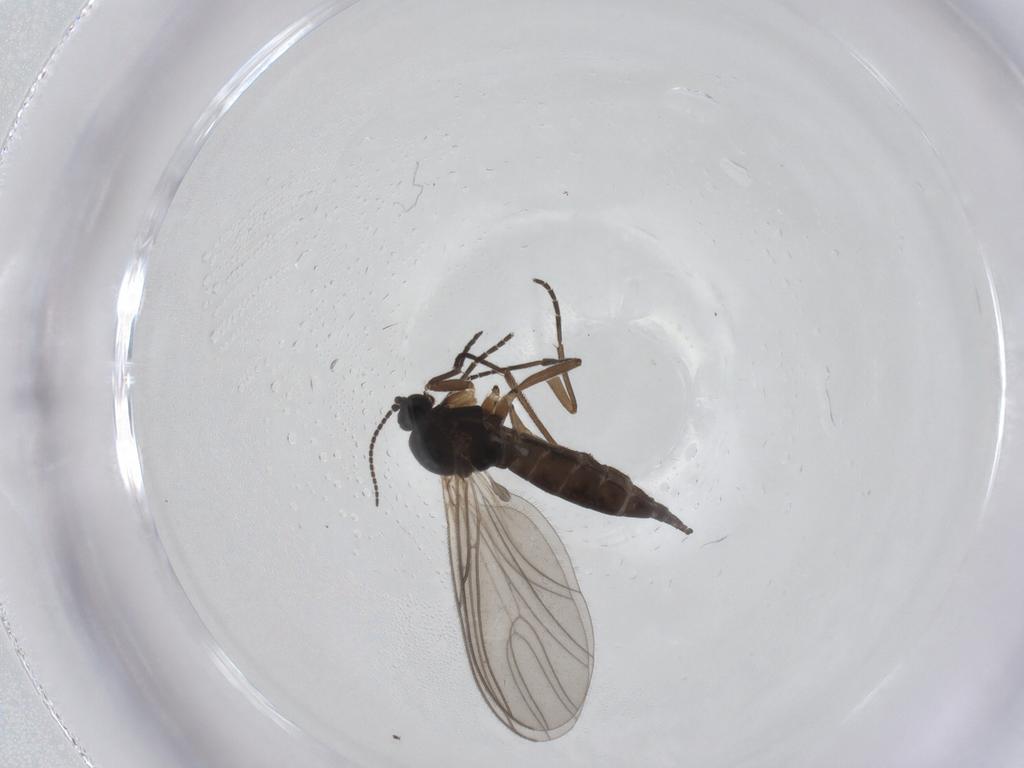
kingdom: Animalia
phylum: Arthropoda
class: Insecta
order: Diptera
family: Sciaridae
